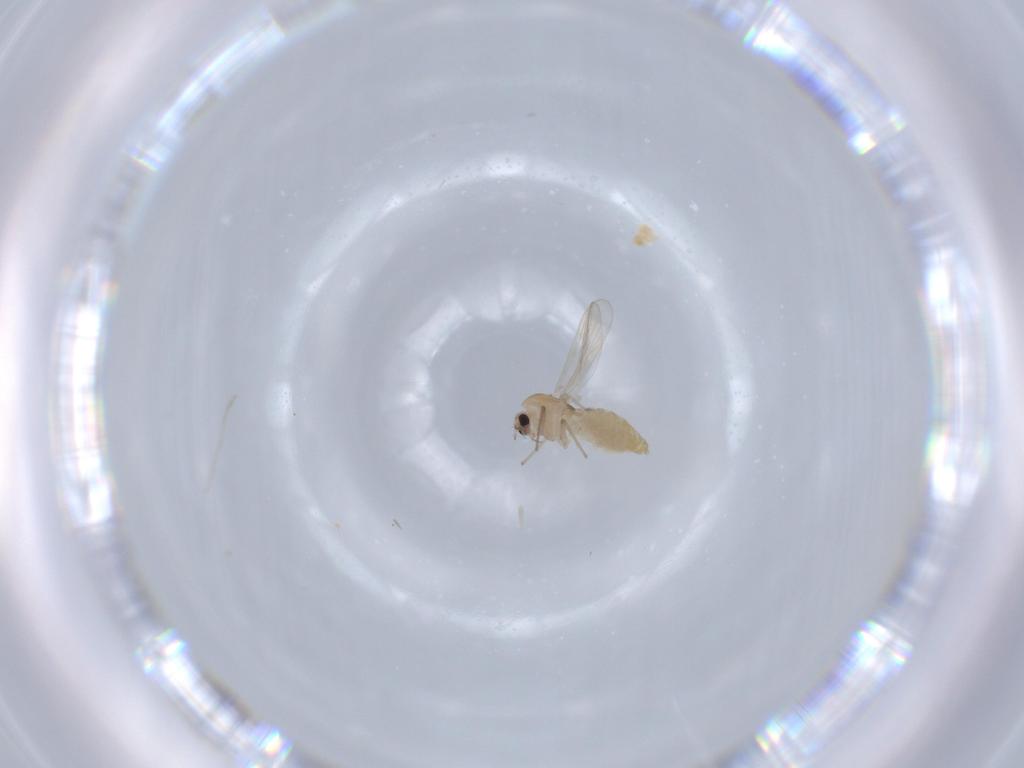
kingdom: Animalia
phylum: Arthropoda
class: Insecta
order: Diptera
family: Chironomidae
